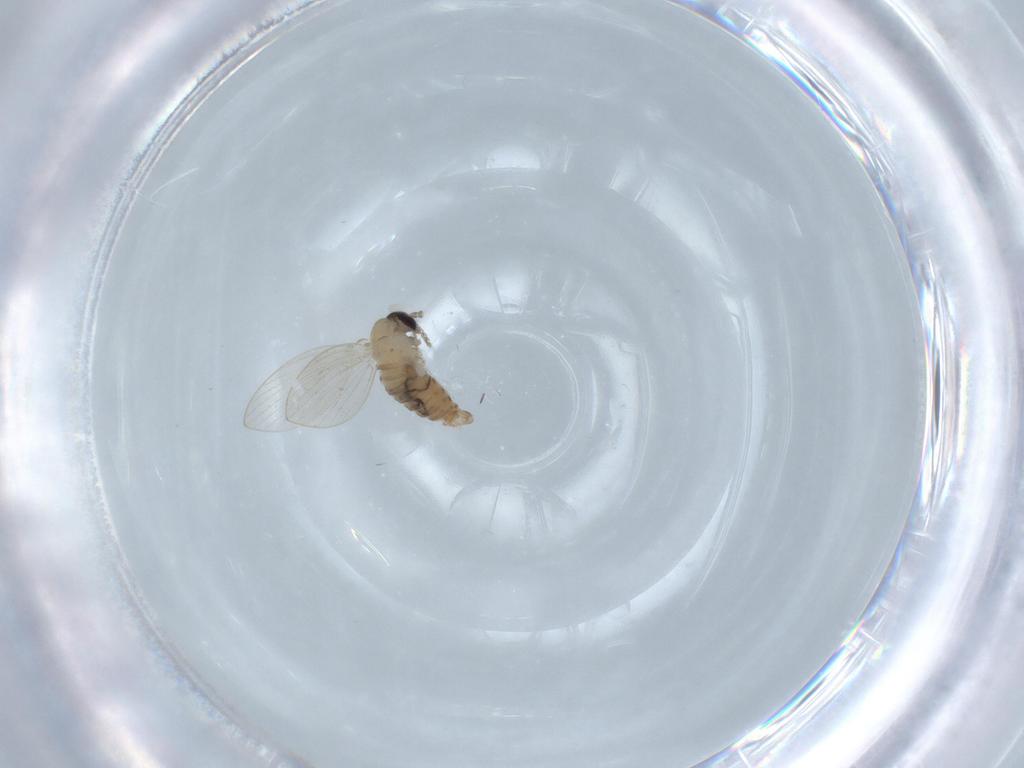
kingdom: Animalia
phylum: Arthropoda
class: Insecta
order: Diptera
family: Psychodidae
